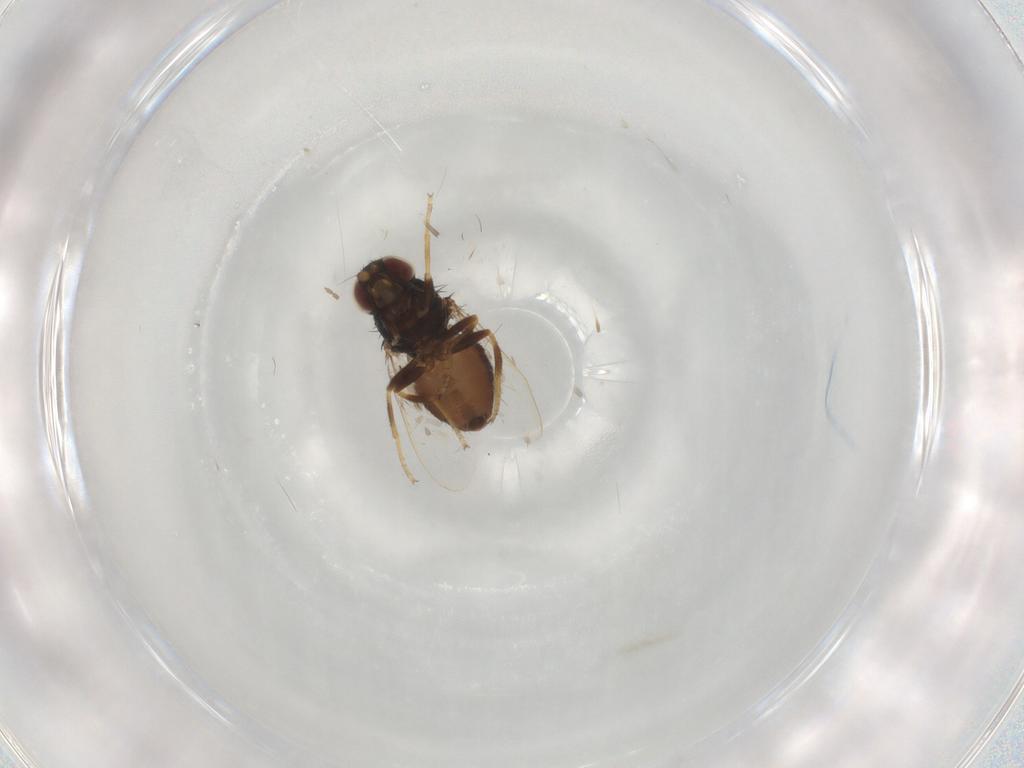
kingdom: Animalia
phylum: Arthropoda
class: Insecta
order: Diptera
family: Chloropidae
